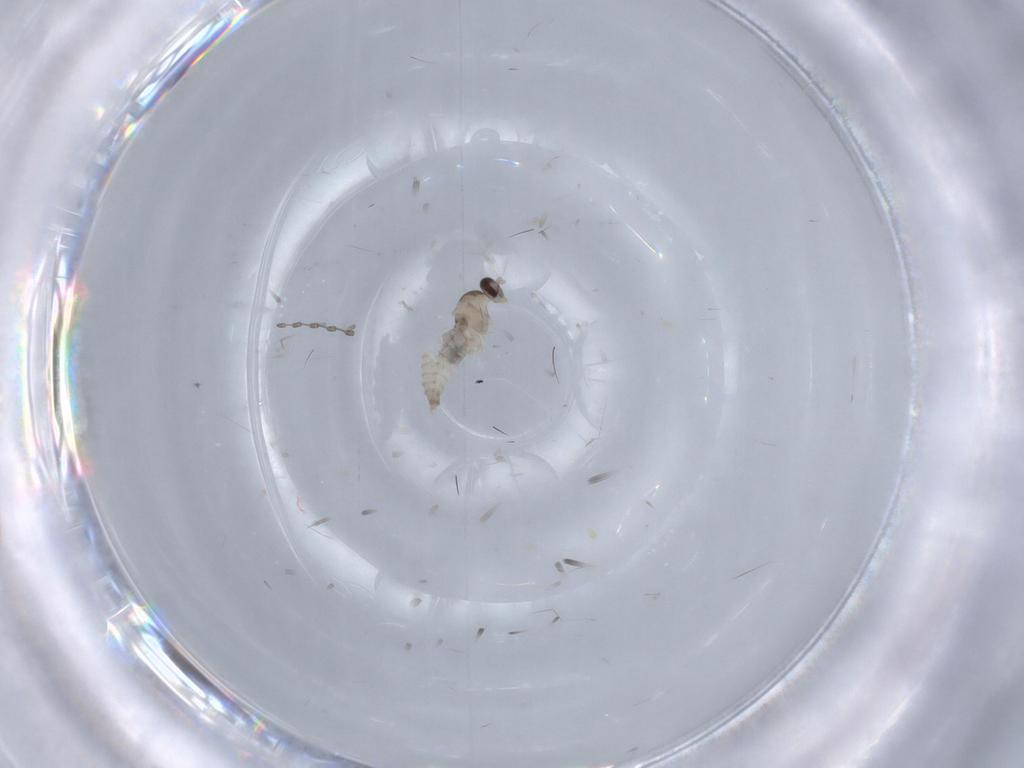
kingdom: Animalia
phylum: Arthropoda
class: Insecta
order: Diptera
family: Cecidomyiidae
